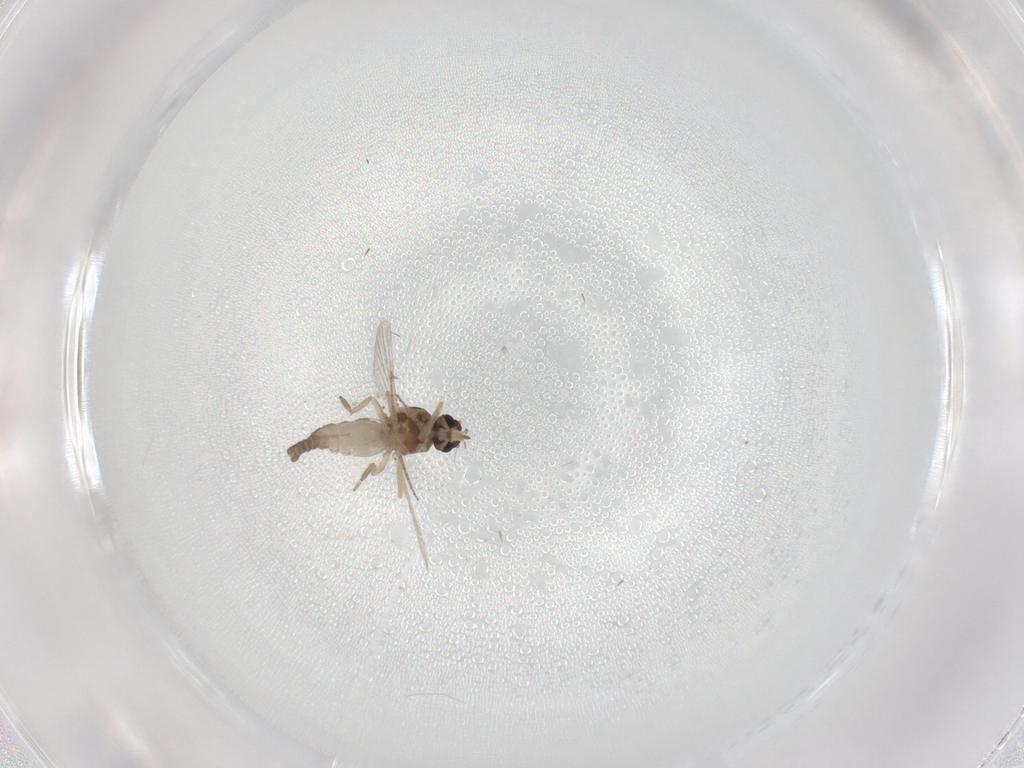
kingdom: Animalia
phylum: Arthropoda
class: Insecta
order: Diptera
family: Ceratopogonidae
